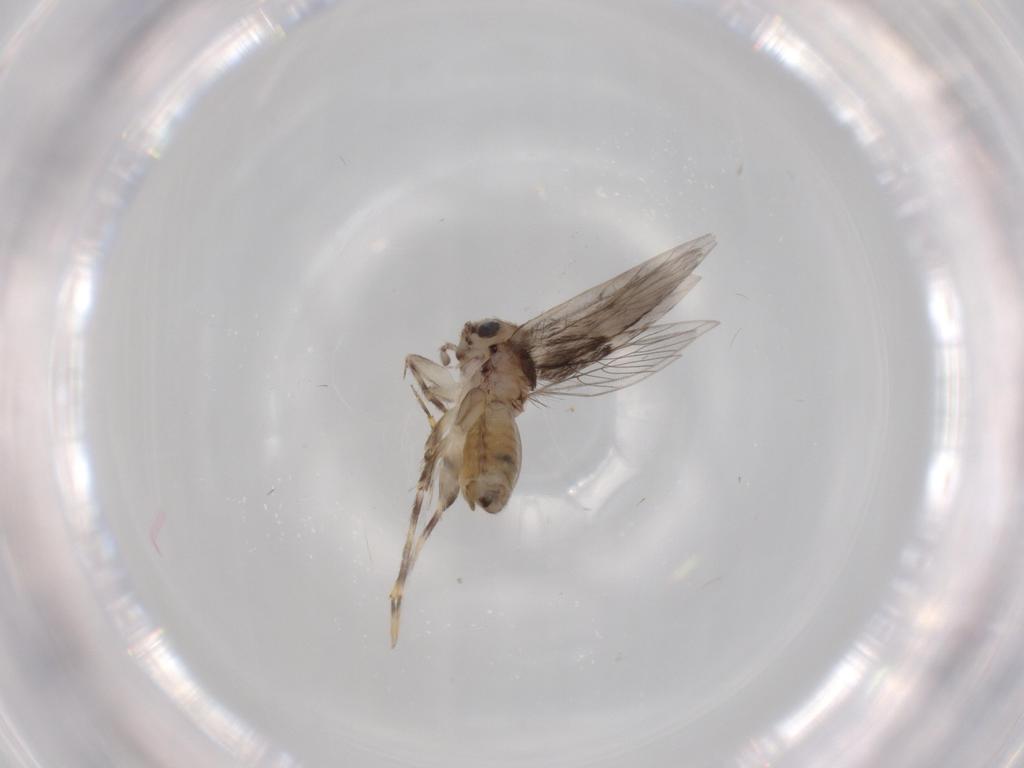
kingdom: Animalia
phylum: Arthropoda
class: Insecta
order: Psocodea
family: Lepidopsocidae
